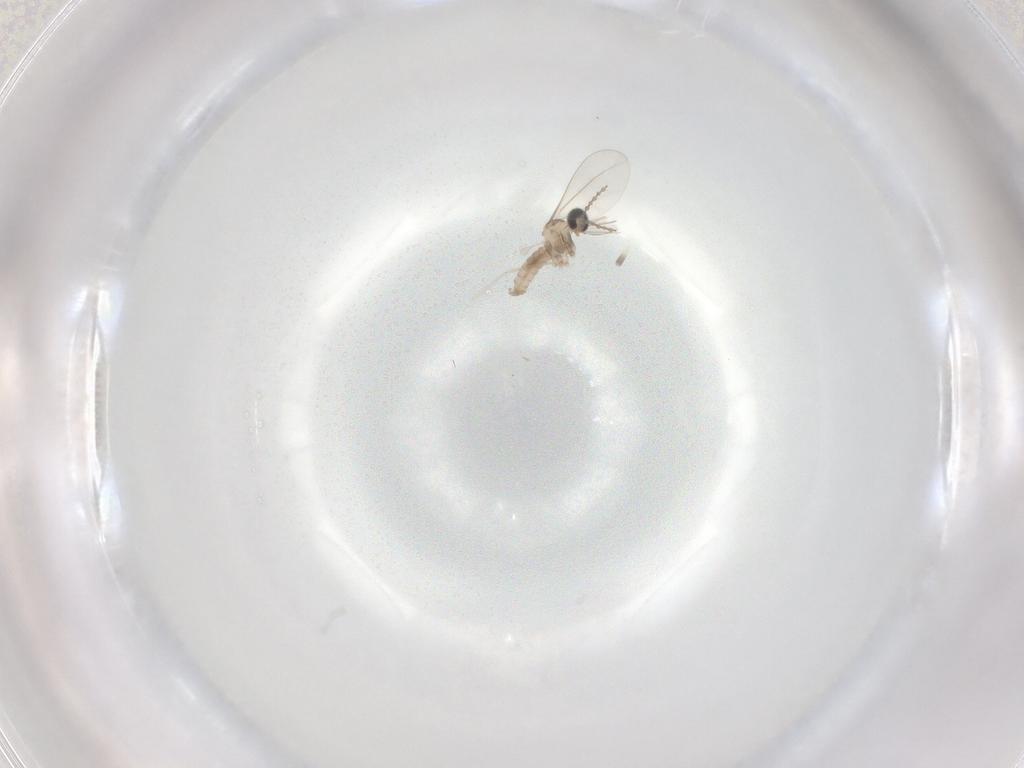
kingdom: Animalia
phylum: Arthropoda
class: Insecta
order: Diptera
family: Cecidomyiidae
